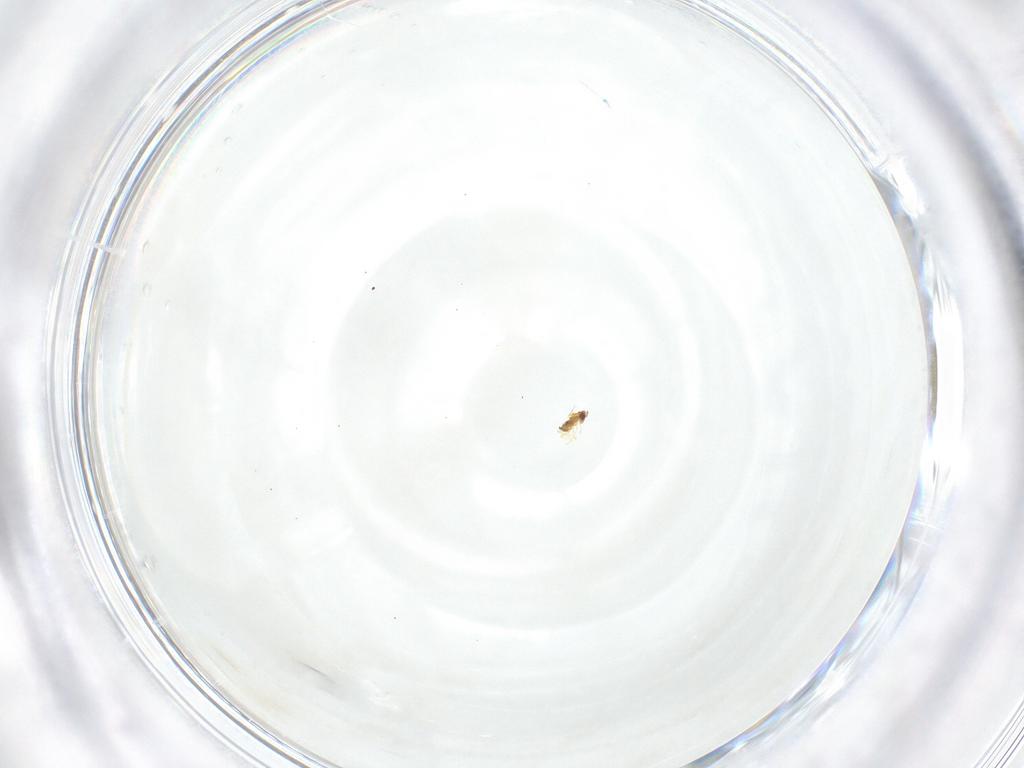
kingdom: Animalia
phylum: Arthropoda
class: Insecta
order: Hymenoptera
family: Trichogrammatidae
